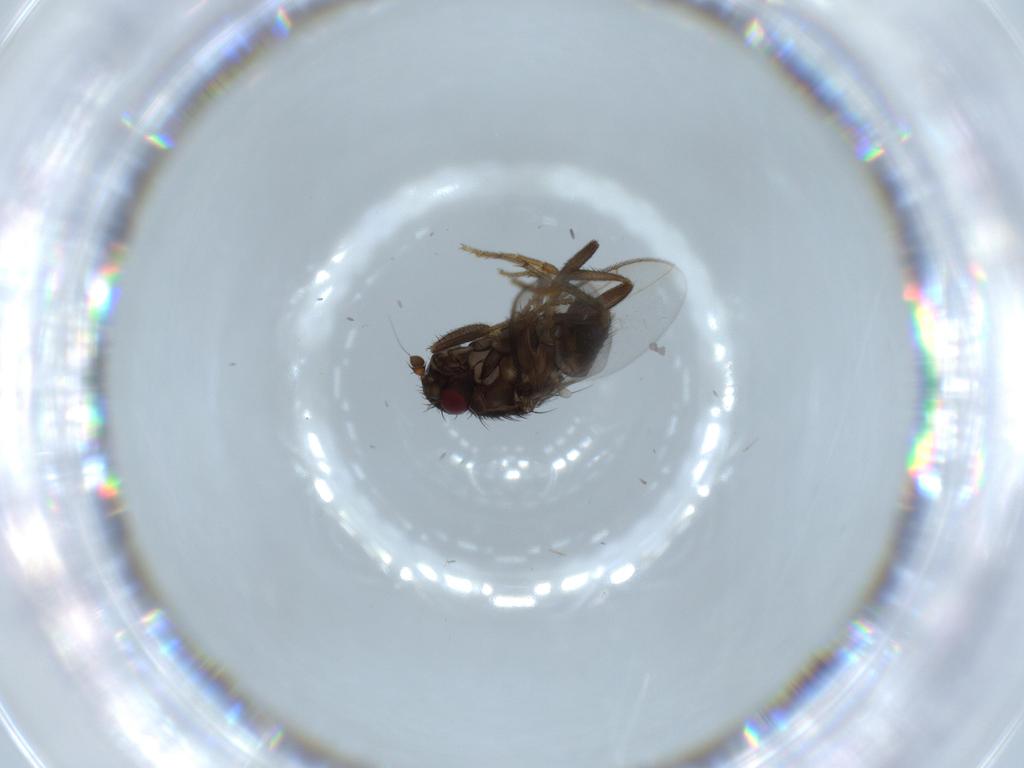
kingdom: Animalia
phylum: Arthropoda
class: Insecta
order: Diptera
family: Sphaeroceridae
